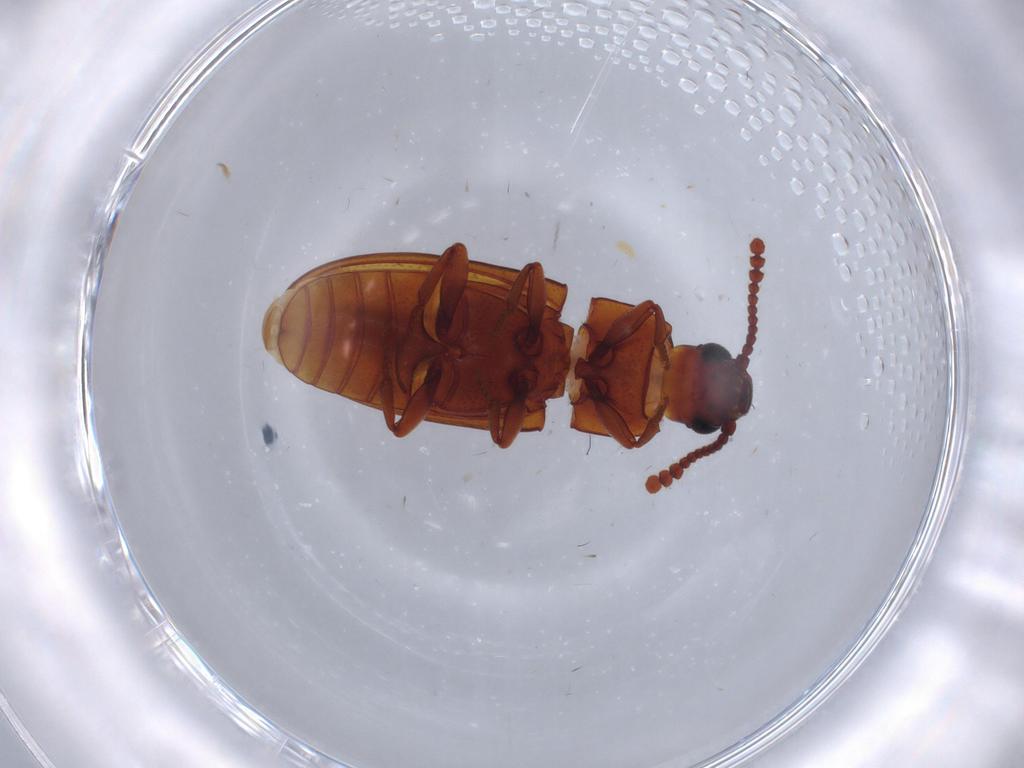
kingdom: Animalia
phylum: Arthropoda
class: Insecta
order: Coleoptera
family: Erotylidae
